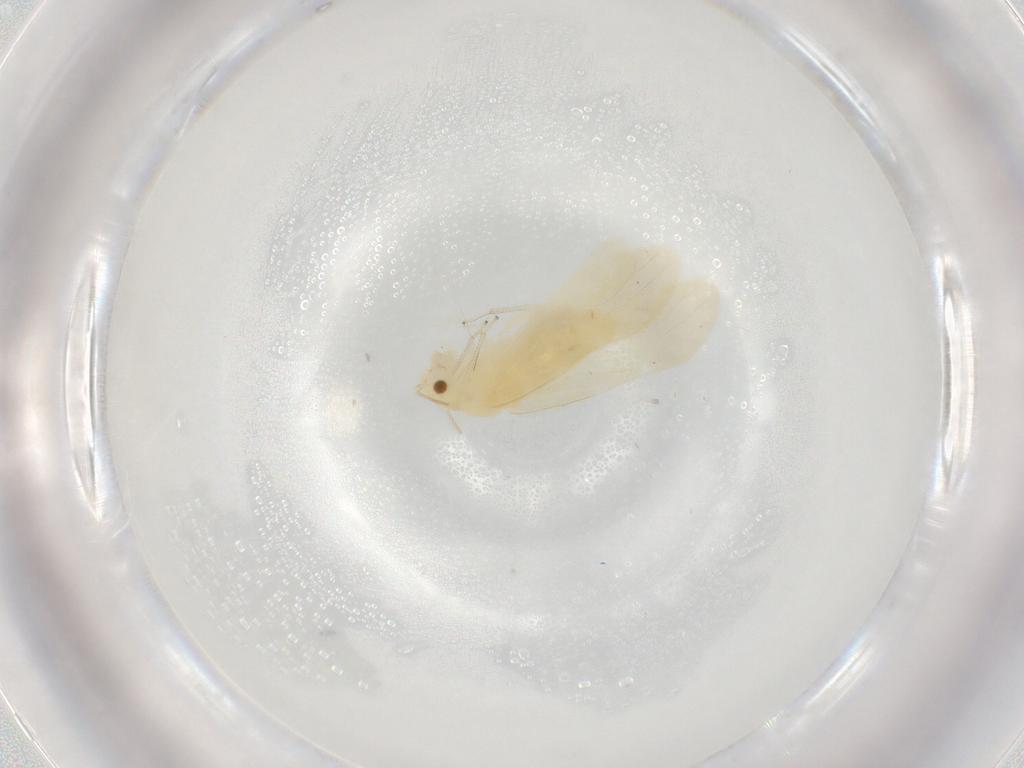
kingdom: Animalia
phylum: Arthropoda
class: Insecta
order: Psocodea
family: Caeciliusidae
